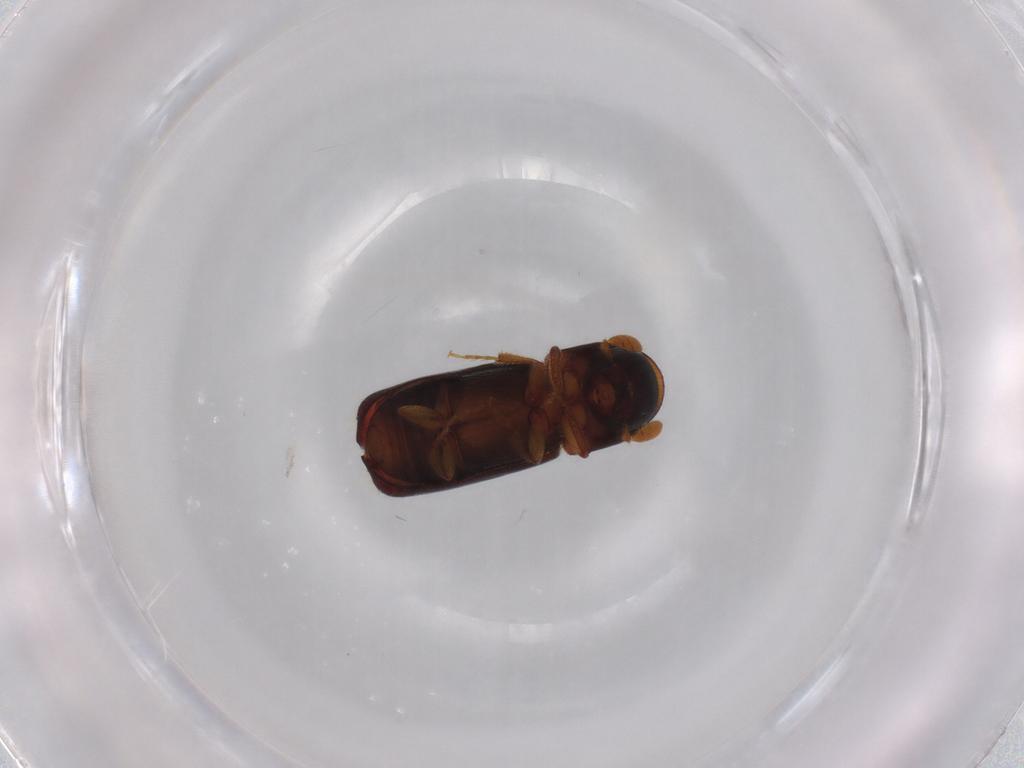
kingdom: Animalia
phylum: Arthropoda
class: Insecta
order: Coleoptera
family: Curculionidae
